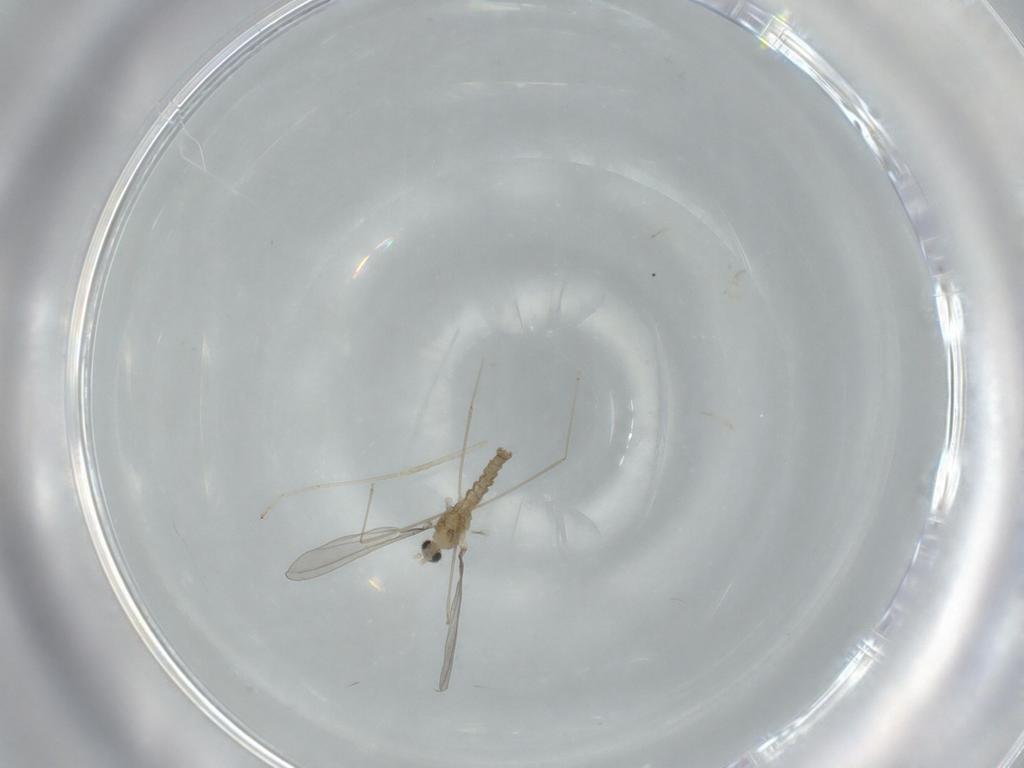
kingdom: Animalia
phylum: Arthropoda
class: Insecta
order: Diptera
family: Cecidomyiidae
